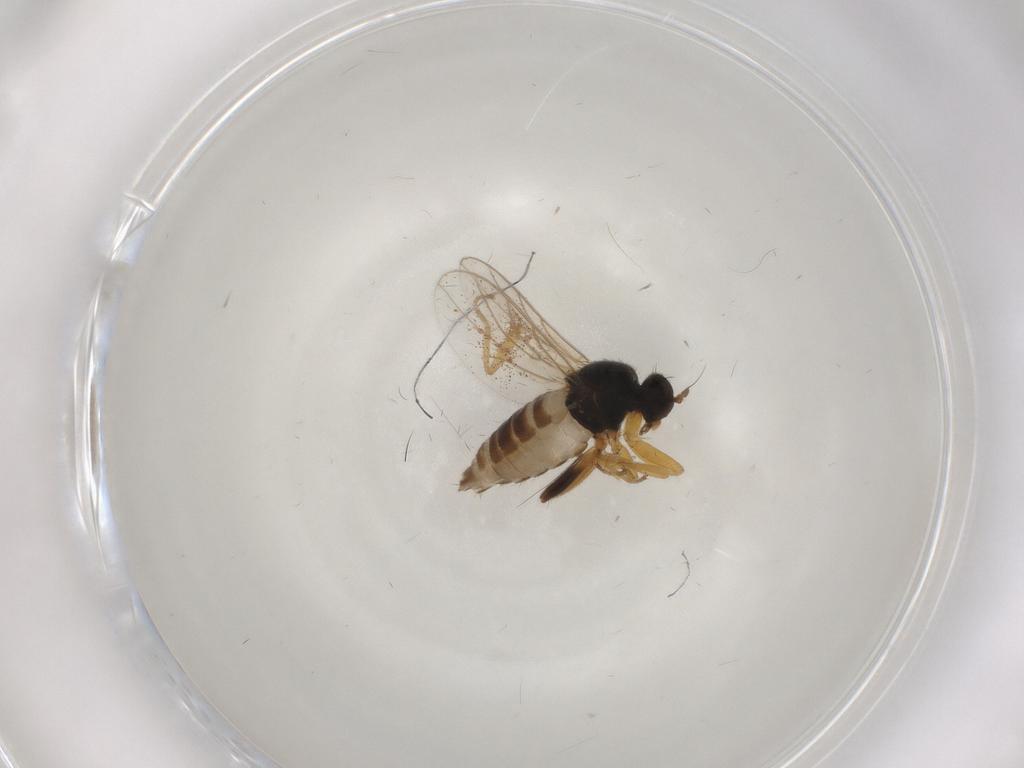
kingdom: Animalia
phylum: Arthropoda
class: Insecta
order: Diptera
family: Hybotidae
